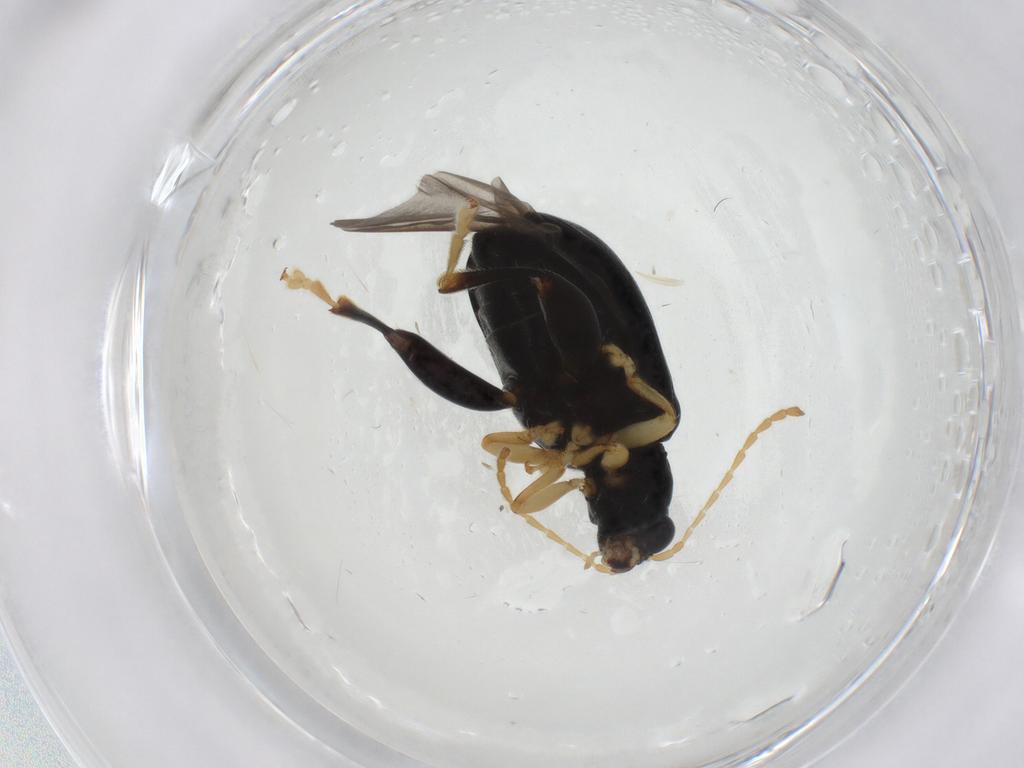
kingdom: Animalia
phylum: Arthropoda
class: Insecta
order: Coleoptera
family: Chrysomelidae
